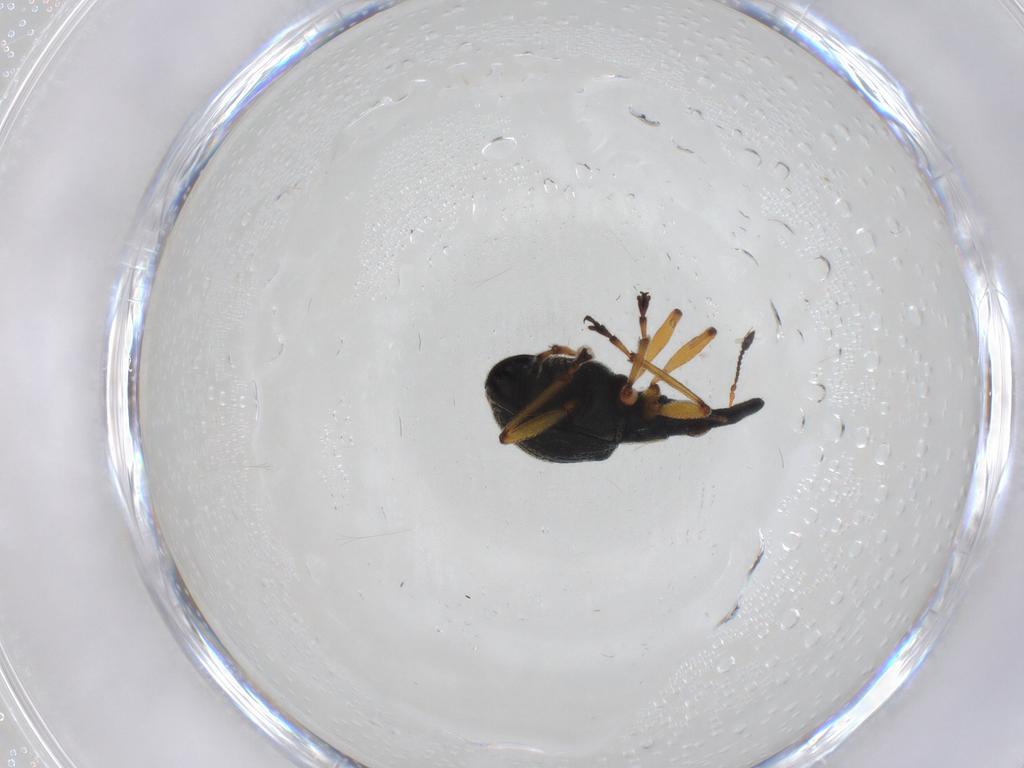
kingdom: Animalia
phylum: Arthropoda
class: Insecta
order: Coleoptera
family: Brentidae
